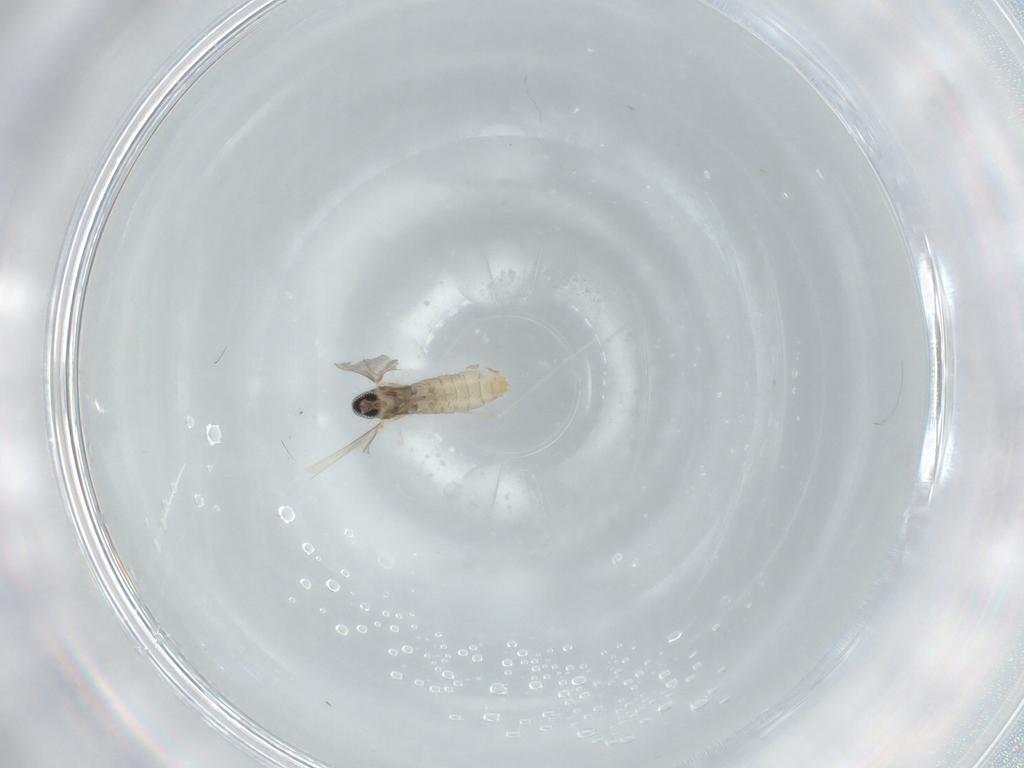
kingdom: Animalia
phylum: Arthropoda
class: Insecta
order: Diptera
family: Cecidomyiidae
